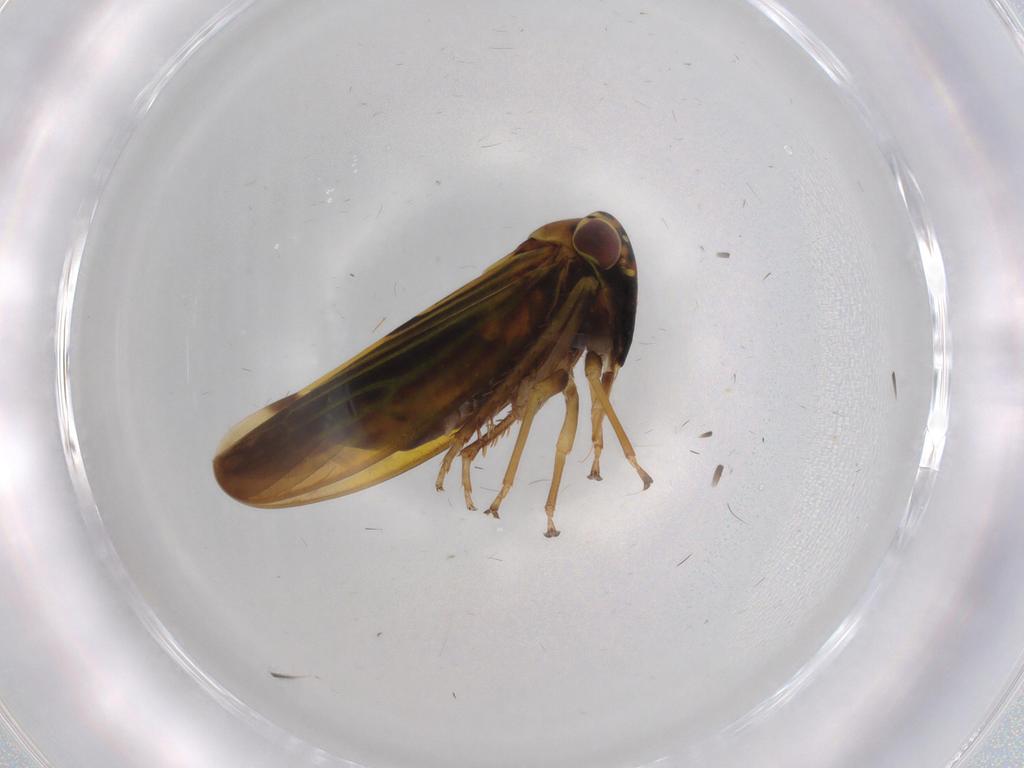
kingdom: Animalia
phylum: Arthropoda
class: Insecta
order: Hemiptera
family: Cicadellidae
